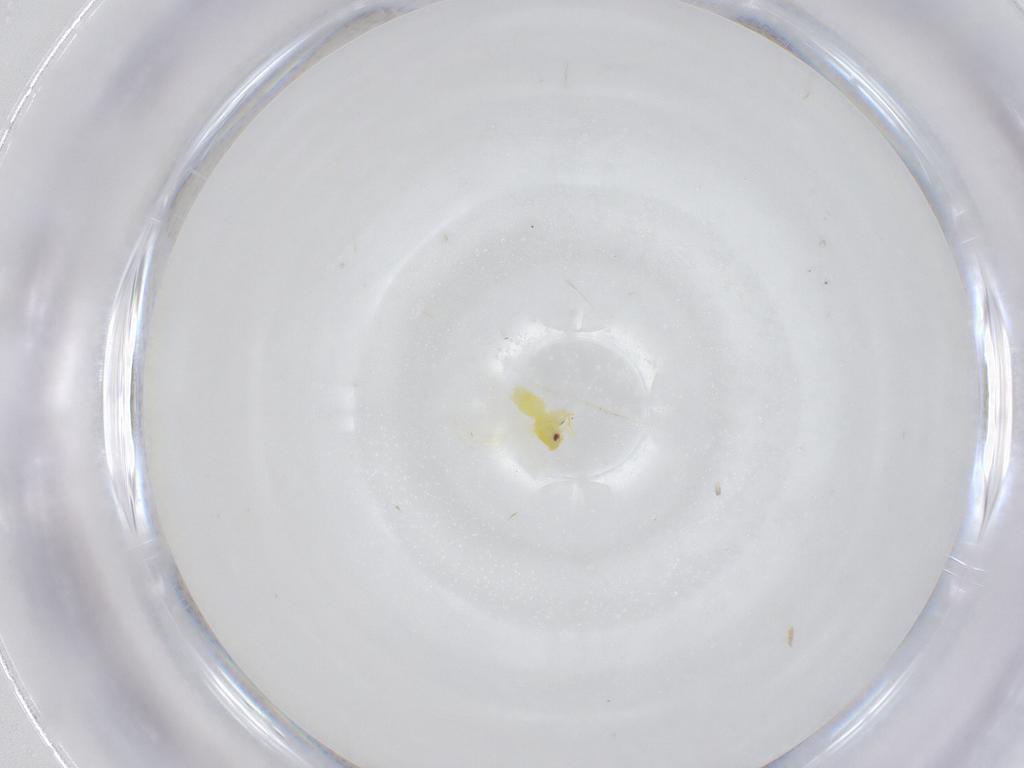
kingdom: Animalia
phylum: Arthropoda
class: Insecta
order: Hemiptera
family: Aleyrodidae
